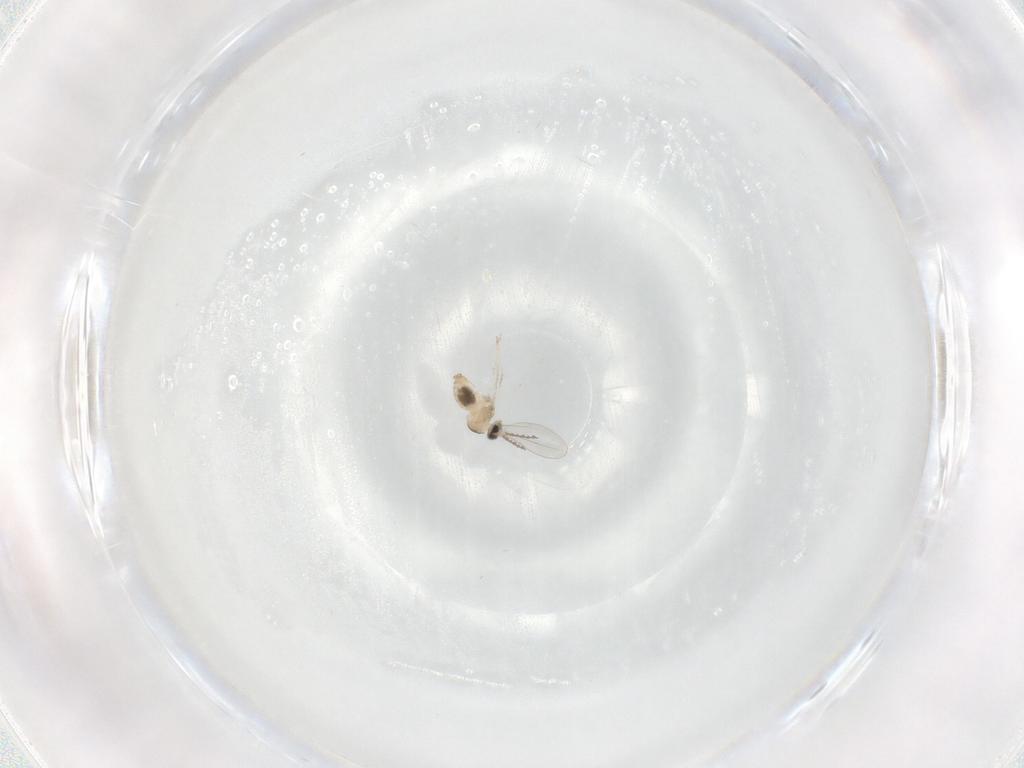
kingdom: Animalia
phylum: Arthropoda
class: Insecta
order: Diptera
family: Cecidomyiidae
